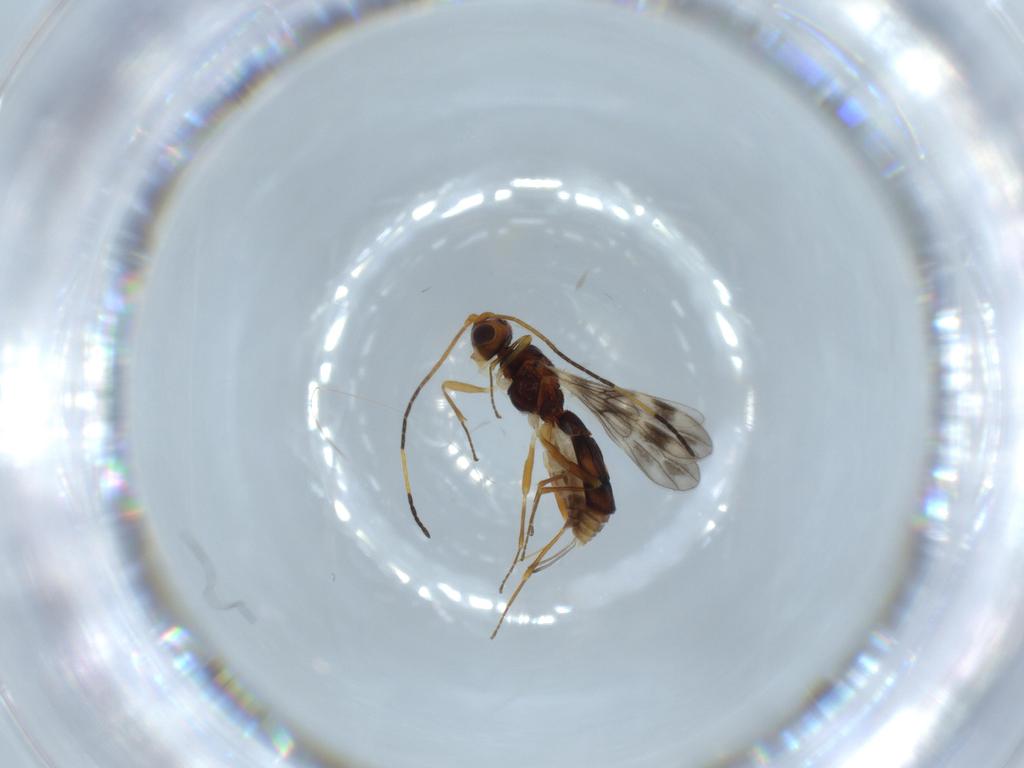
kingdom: Animalia
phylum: Arthropoda
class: Insecta
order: Hymenoptera
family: Braconidae
